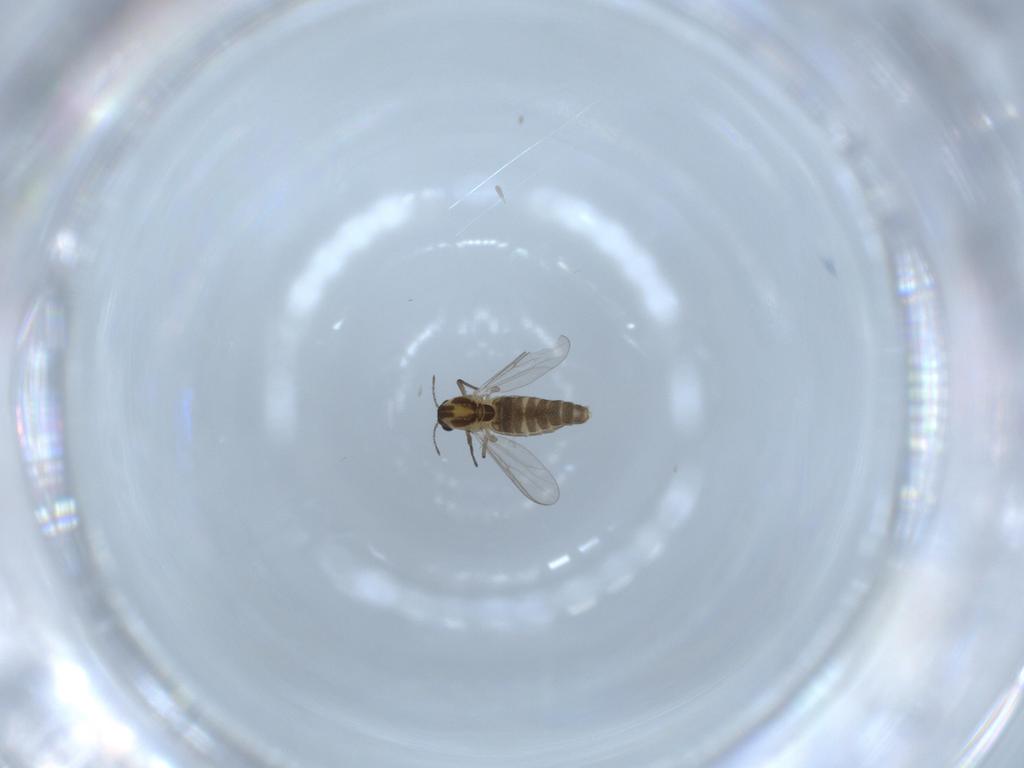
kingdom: Animalia
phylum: Arthropoda
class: Insecta
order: Diptera
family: Chironomidae
